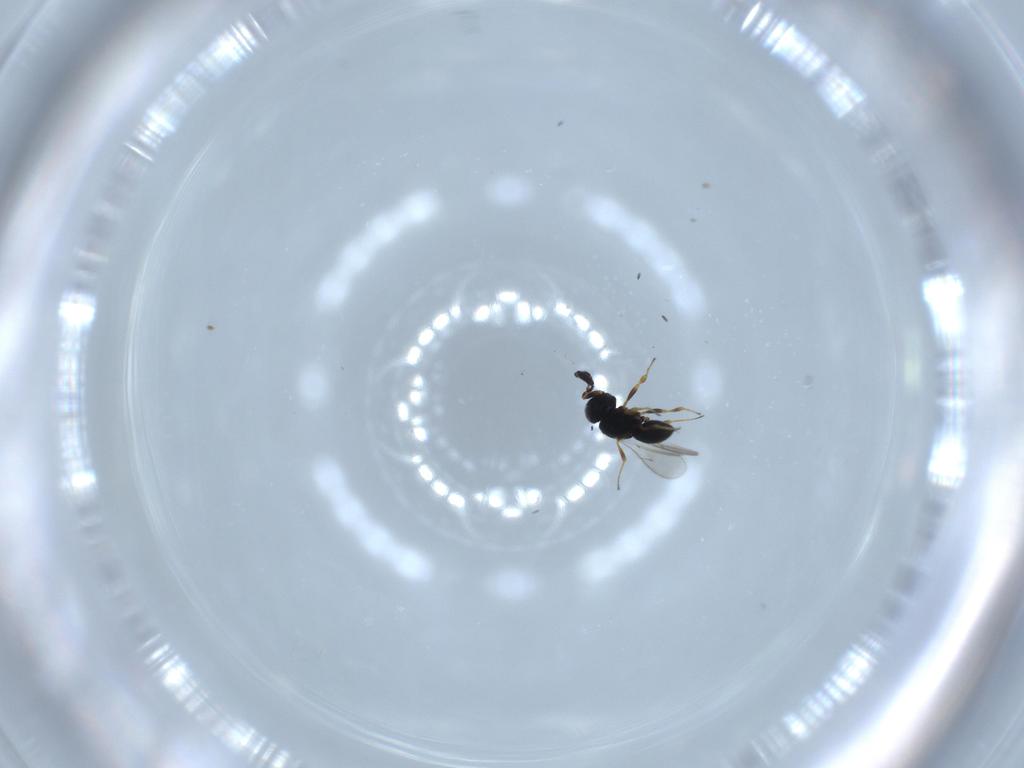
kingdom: Animalia
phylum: Arthropoda
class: Insecta
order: Hymenoptera
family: Scelionidae
